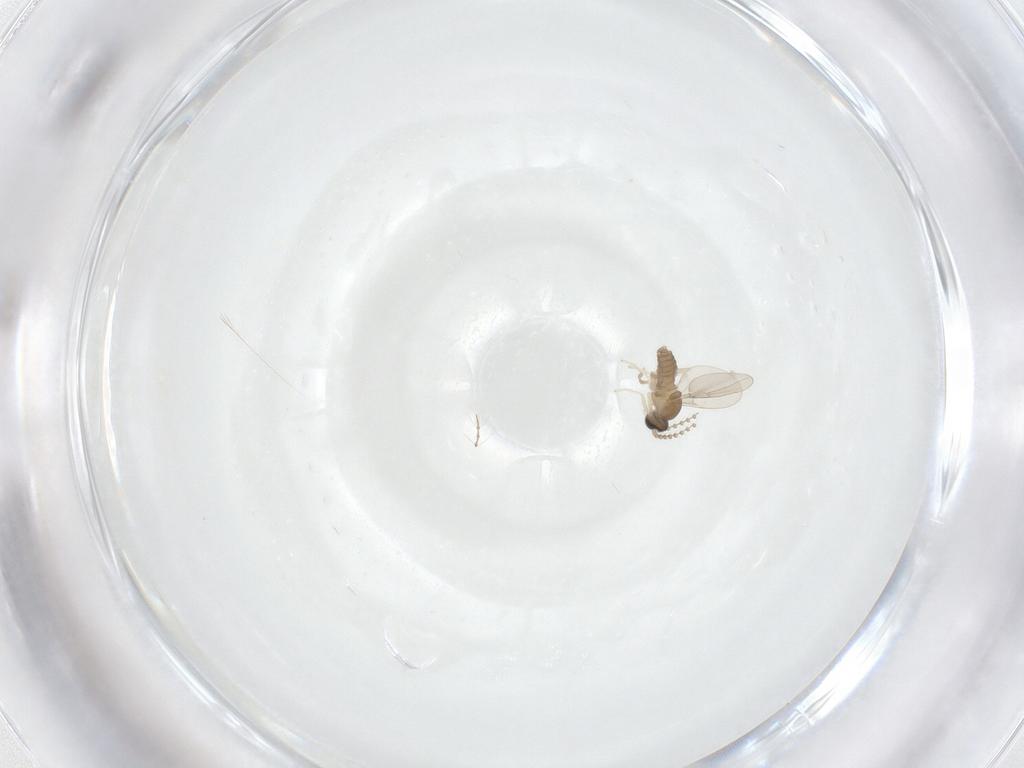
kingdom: Animalia
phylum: Arthropoda
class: Insecta
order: Diptera
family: Cecidomyiidae
